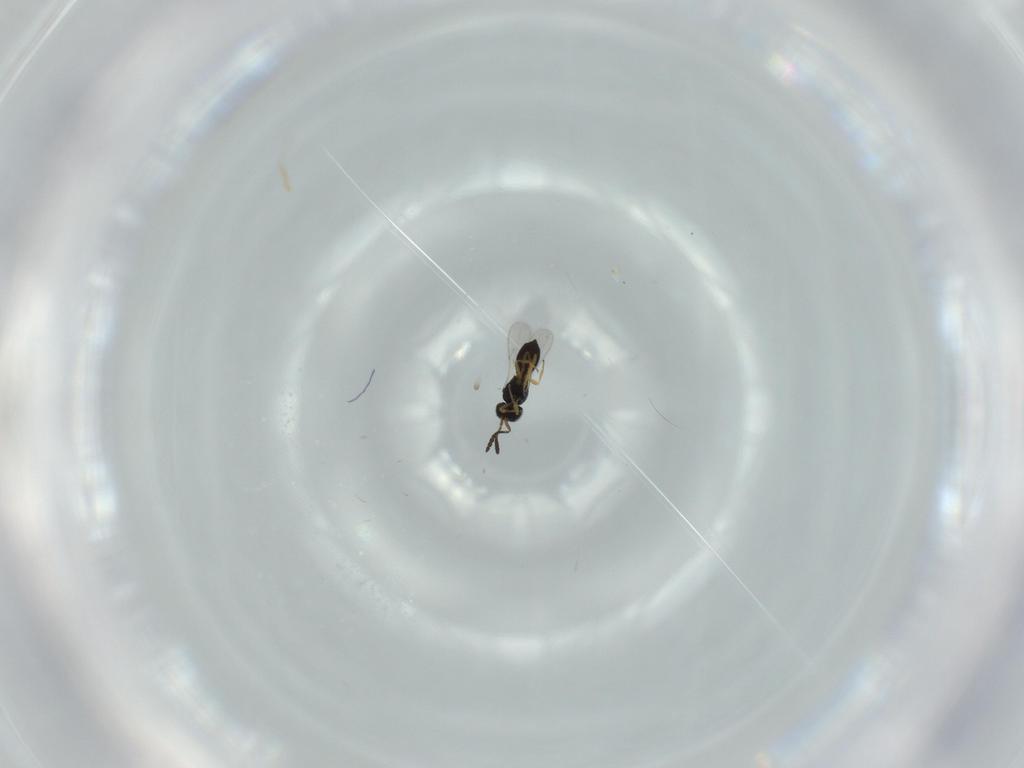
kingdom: Animalia
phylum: Arthropoda
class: Insecta
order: Hymenoptera
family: Scelionidae
